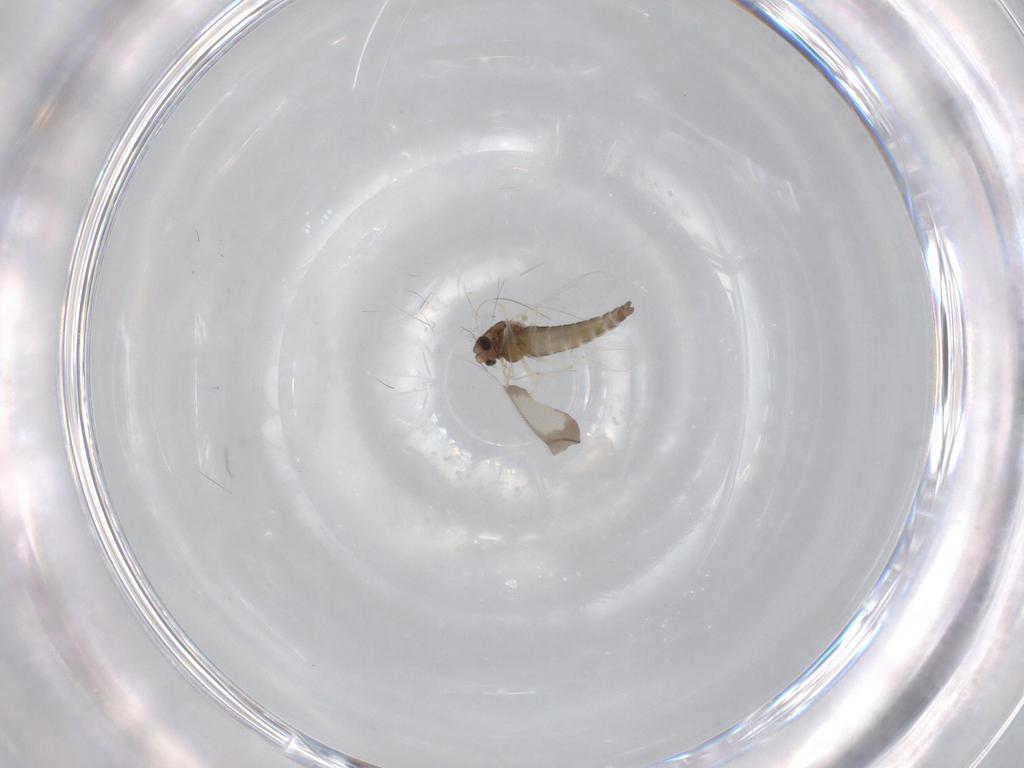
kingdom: Animalia
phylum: Arthropoda
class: Insecta
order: Diptera
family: Chironomidae
